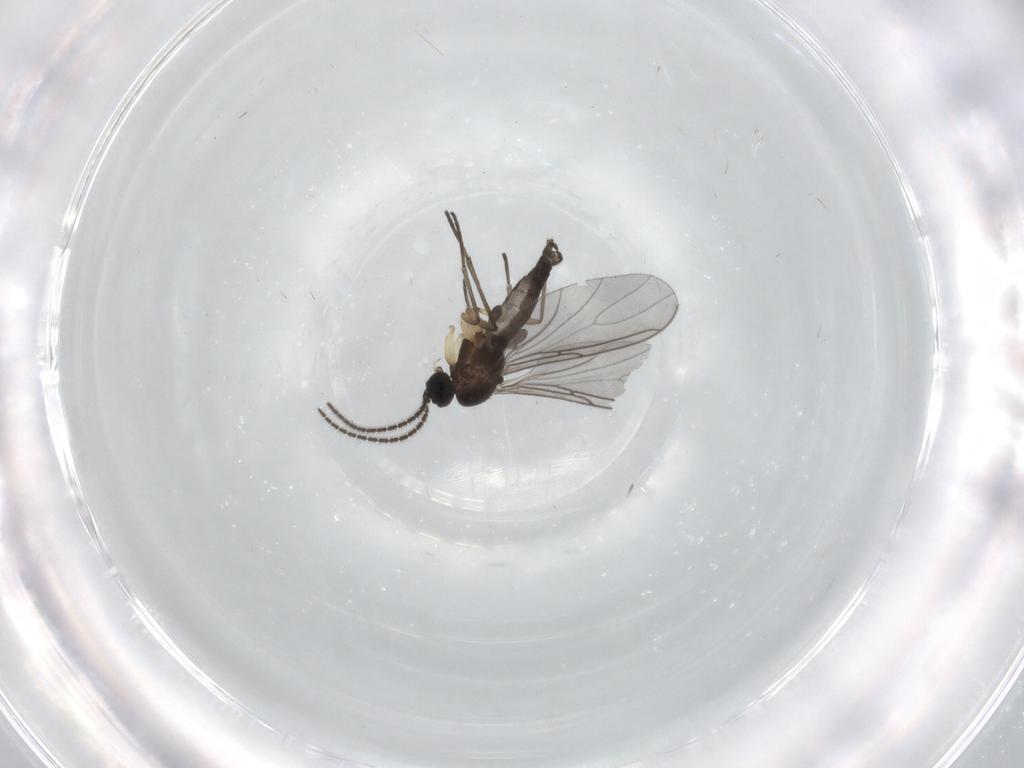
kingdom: Animalia
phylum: Arthropoda
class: Insecta
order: Diptera
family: Sciaridae
